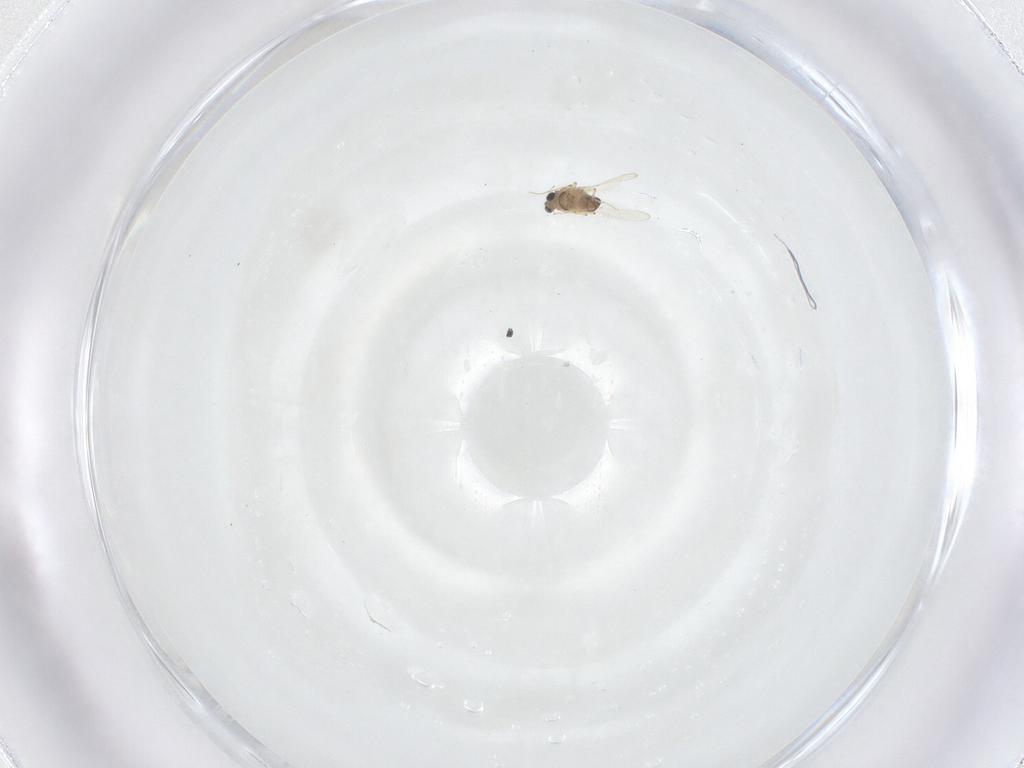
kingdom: Animalia
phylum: Arthropoda
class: Insecta
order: Diptera
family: Chironomidae
